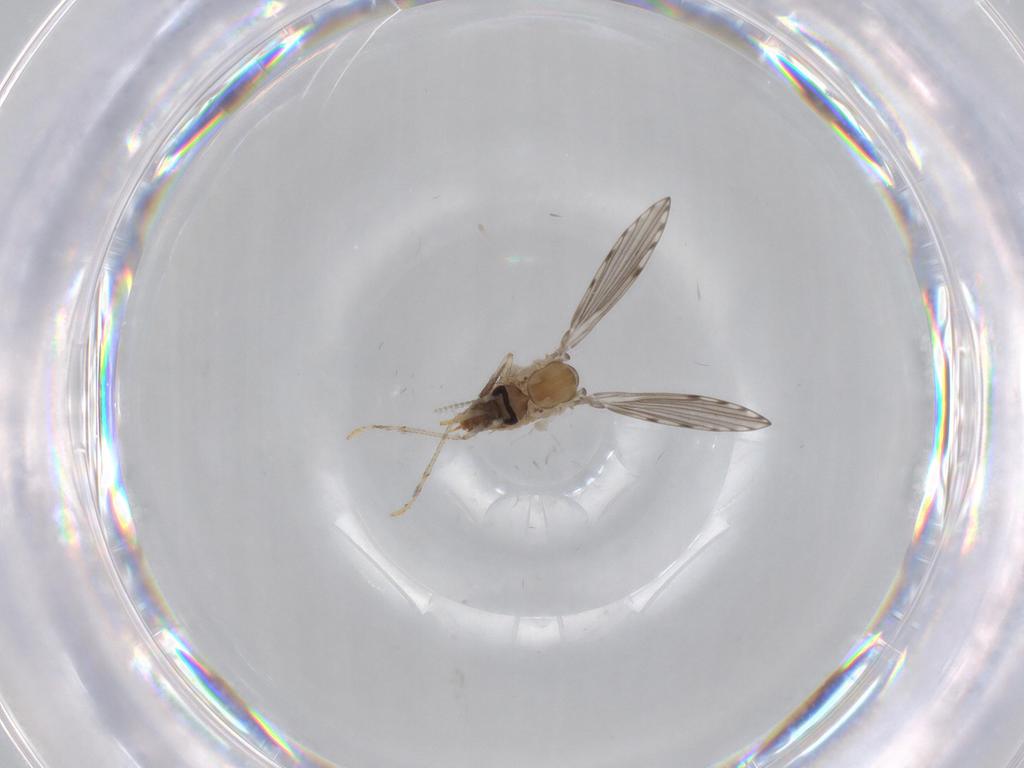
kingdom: Animalia
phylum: Arthropoda
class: Insecta
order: Diptera
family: Psychodidae
